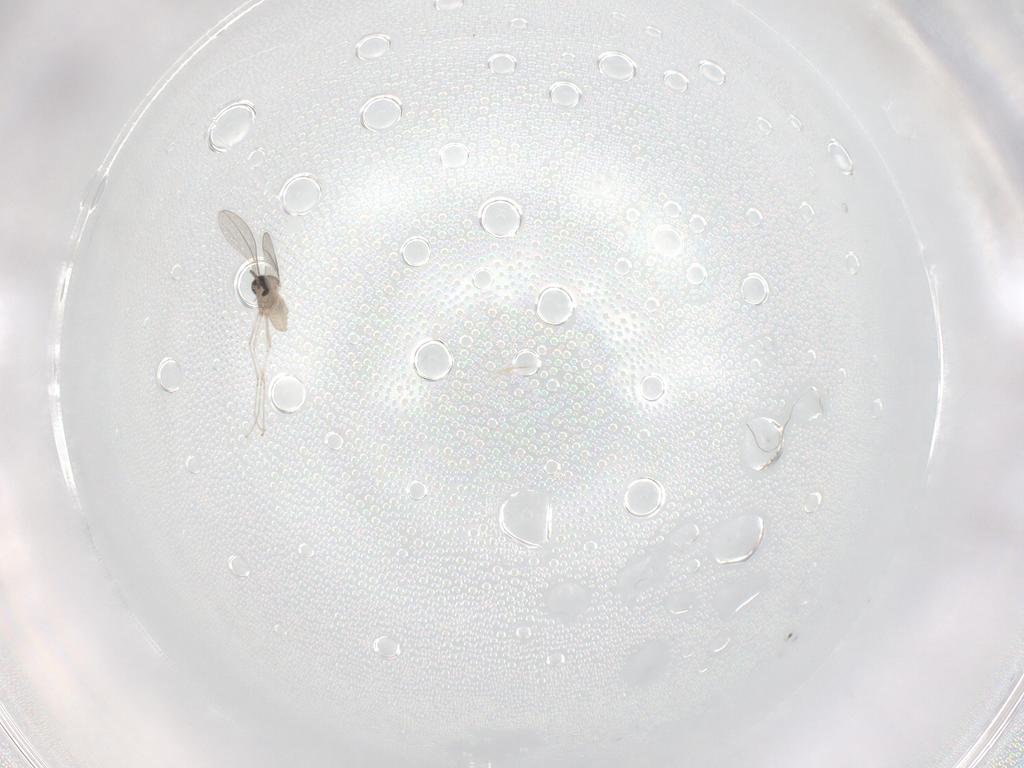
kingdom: Animalia
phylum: Arthropoda
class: Insecta
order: Diptera
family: Cecidomyiidae
